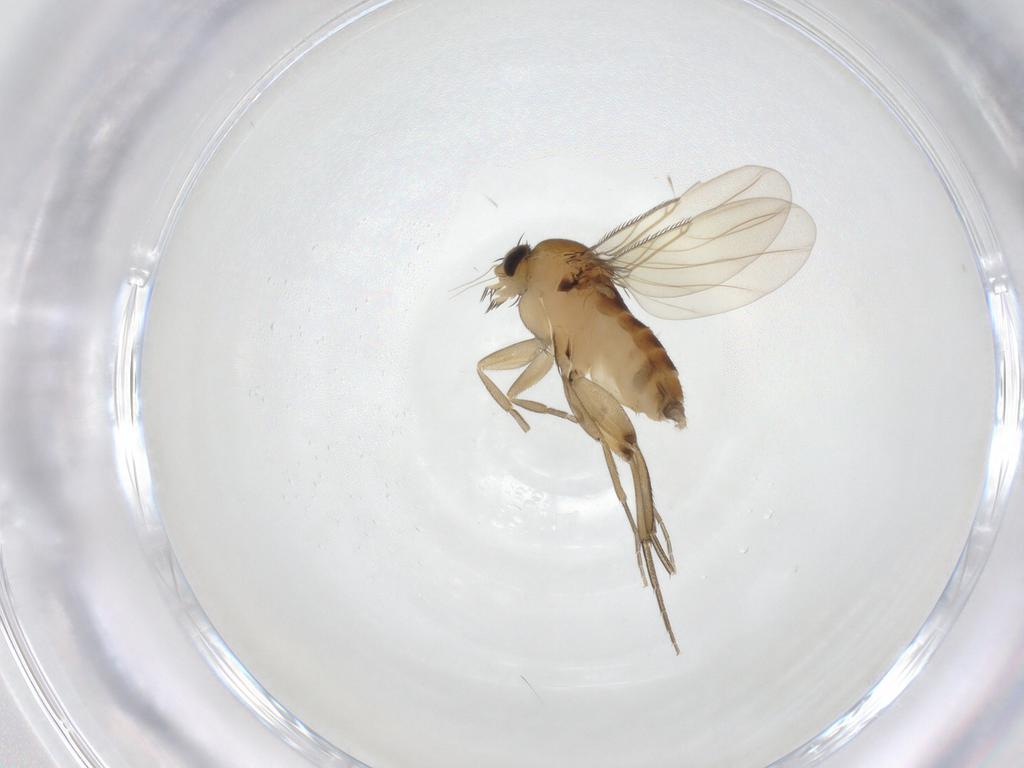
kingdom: Animalia
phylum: Arthropoda
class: Insecta
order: Diptera
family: Phoridae
